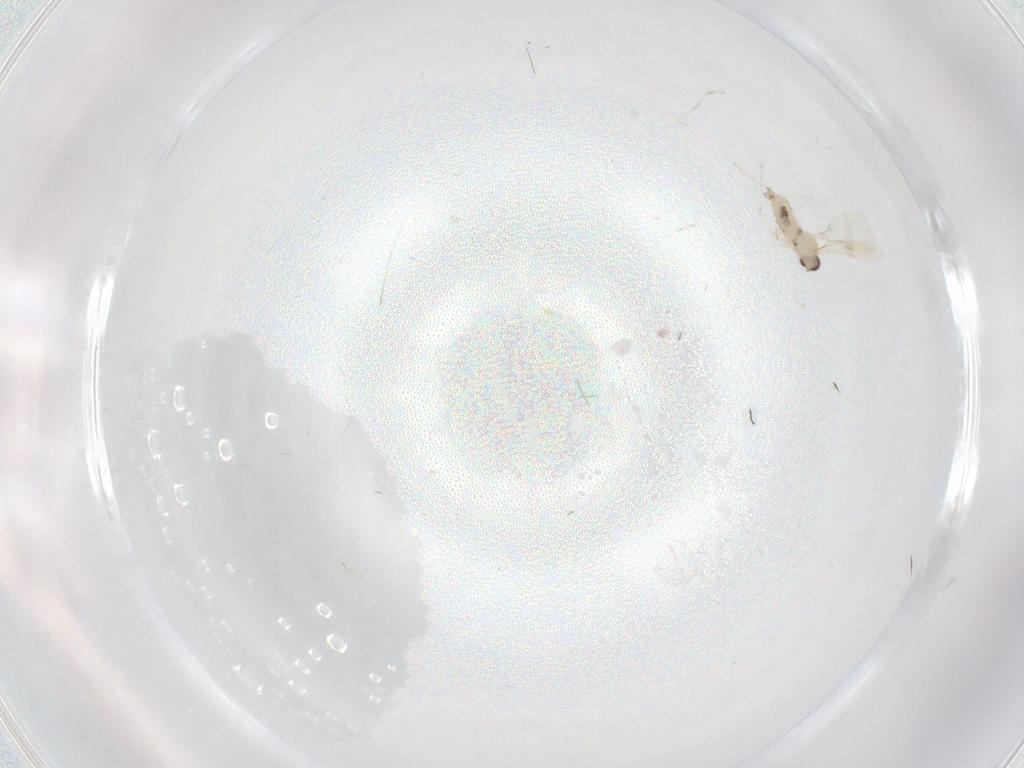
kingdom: Animalia
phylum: Arthropoda
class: Insecta
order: Diptera
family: Cecidomyiidae
